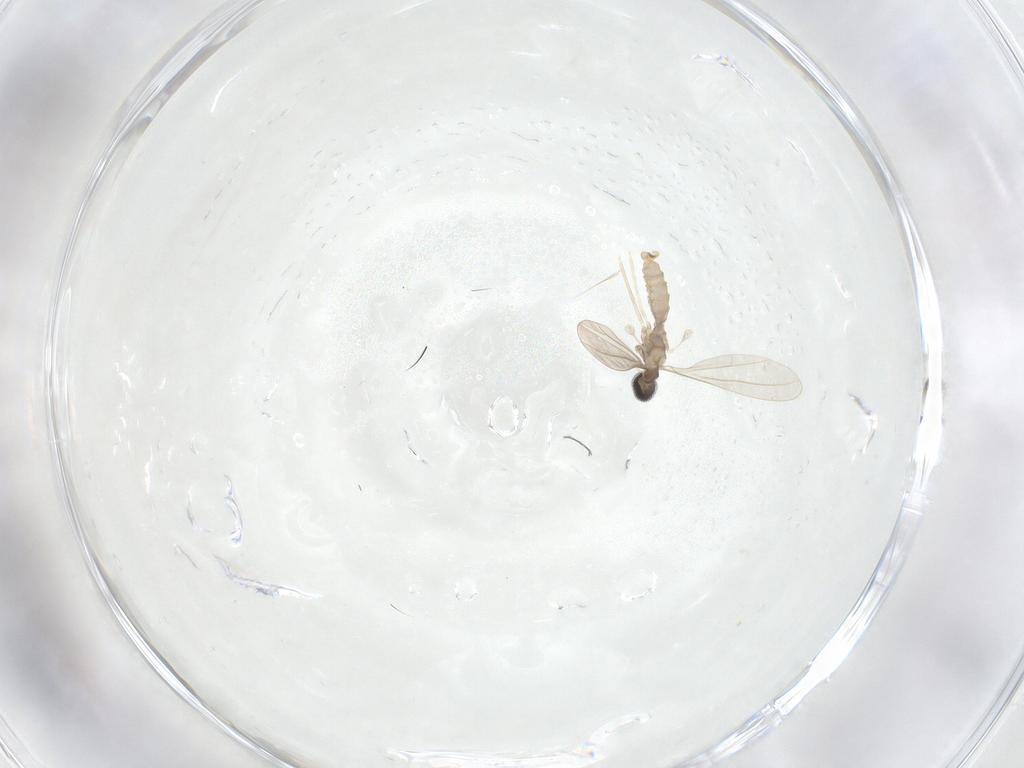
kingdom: Animalia
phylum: Arthropoda
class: Insecta
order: Diptera
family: Cecidomyiidae
